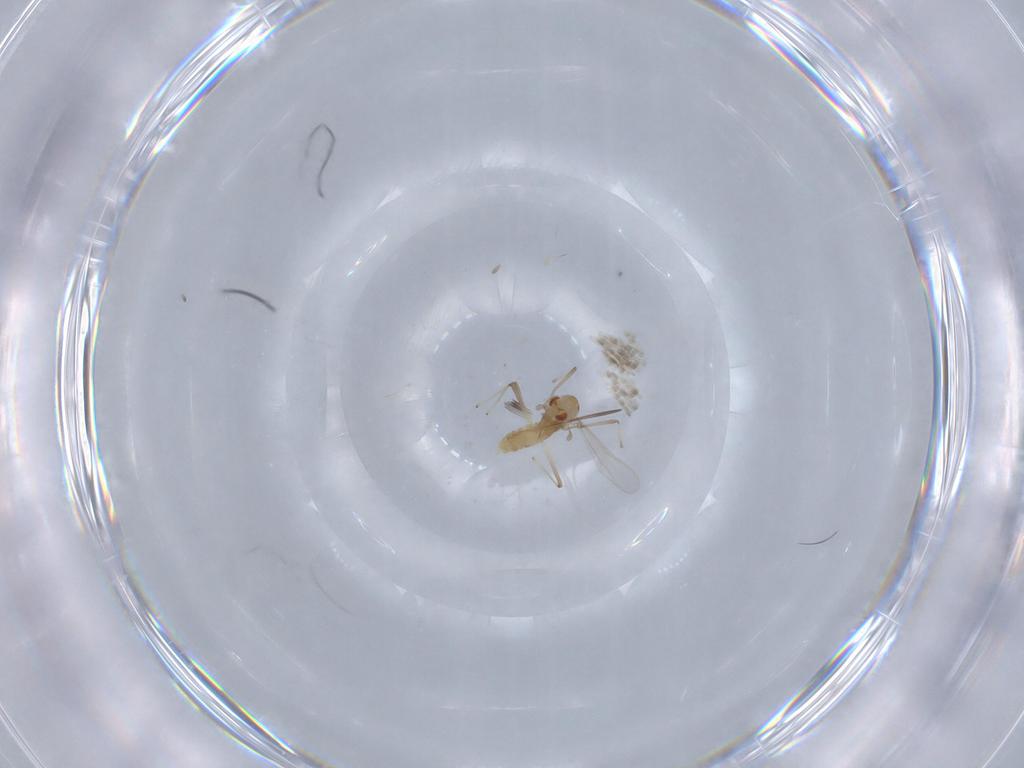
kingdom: Animalia
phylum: Arthropoda
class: Insecta
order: Diptera
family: Chironomidae
